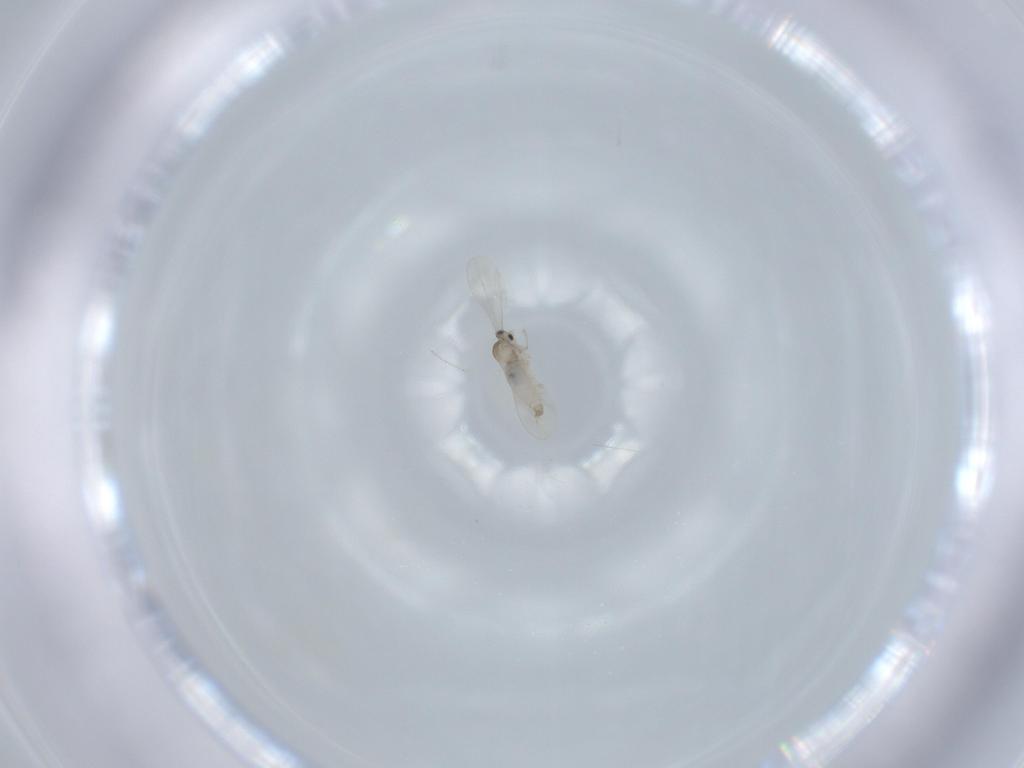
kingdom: Animalia
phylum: Arthropoda
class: Insecta
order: Diptera
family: Cecidomyiidae
